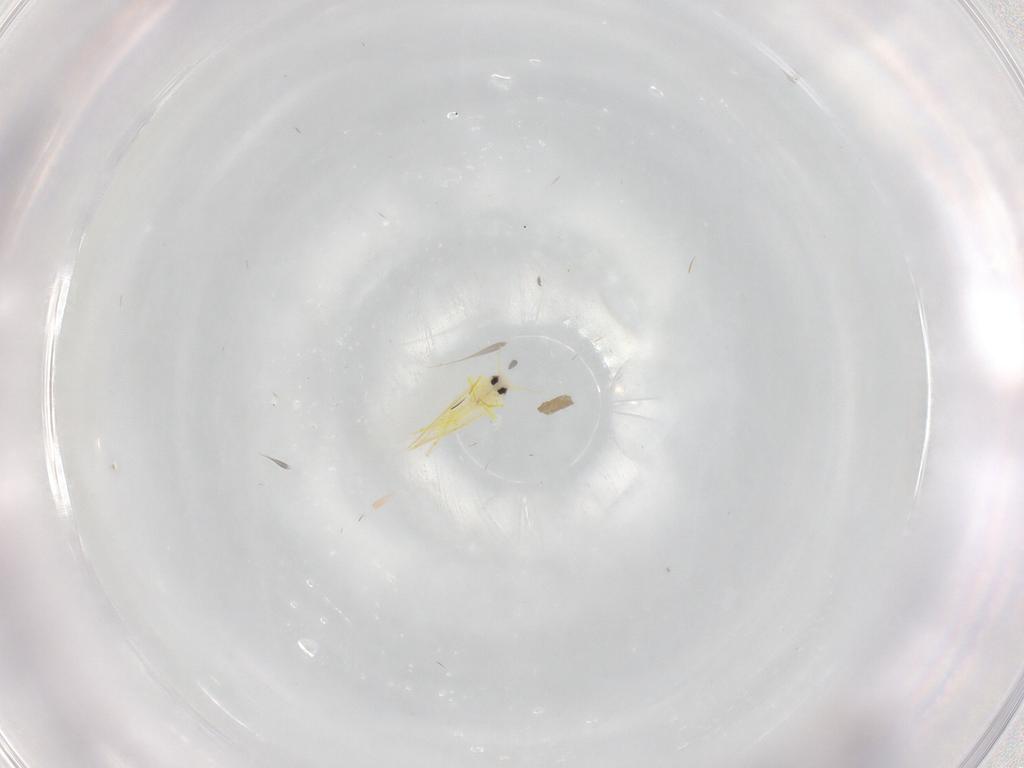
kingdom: Animalia
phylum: Arthropoda
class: Insecta
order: Hemiptera
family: Aleyrodidae
